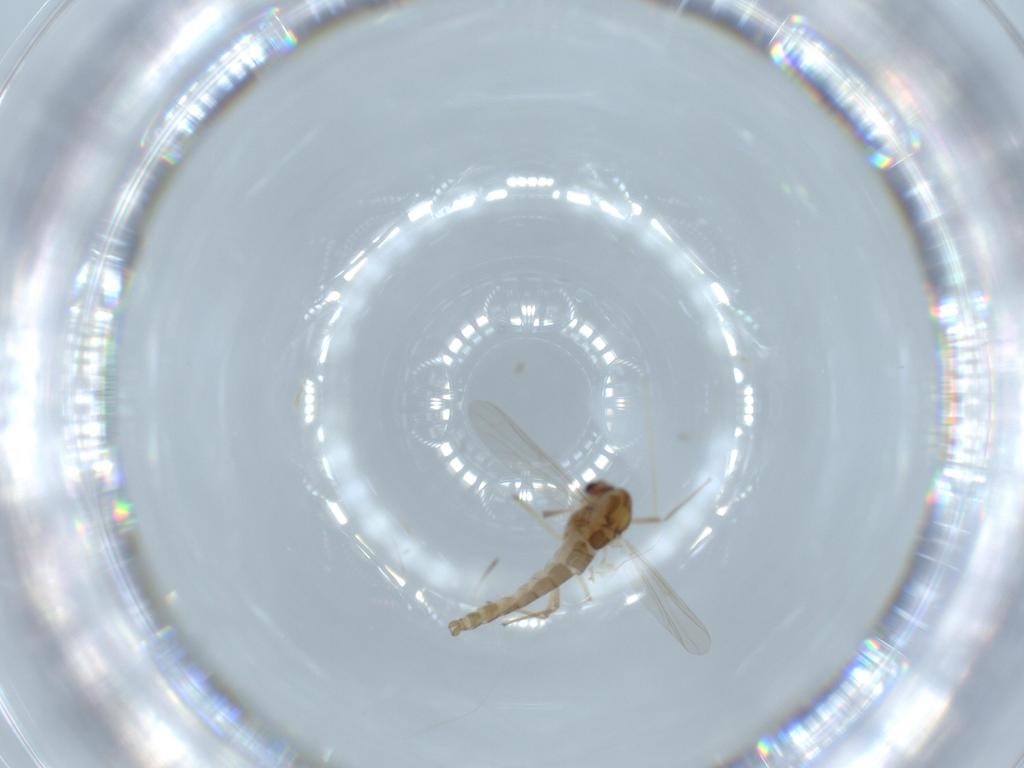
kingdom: Animalia
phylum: Arthropoda
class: Insecta
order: Diptera
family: Chironomidae
